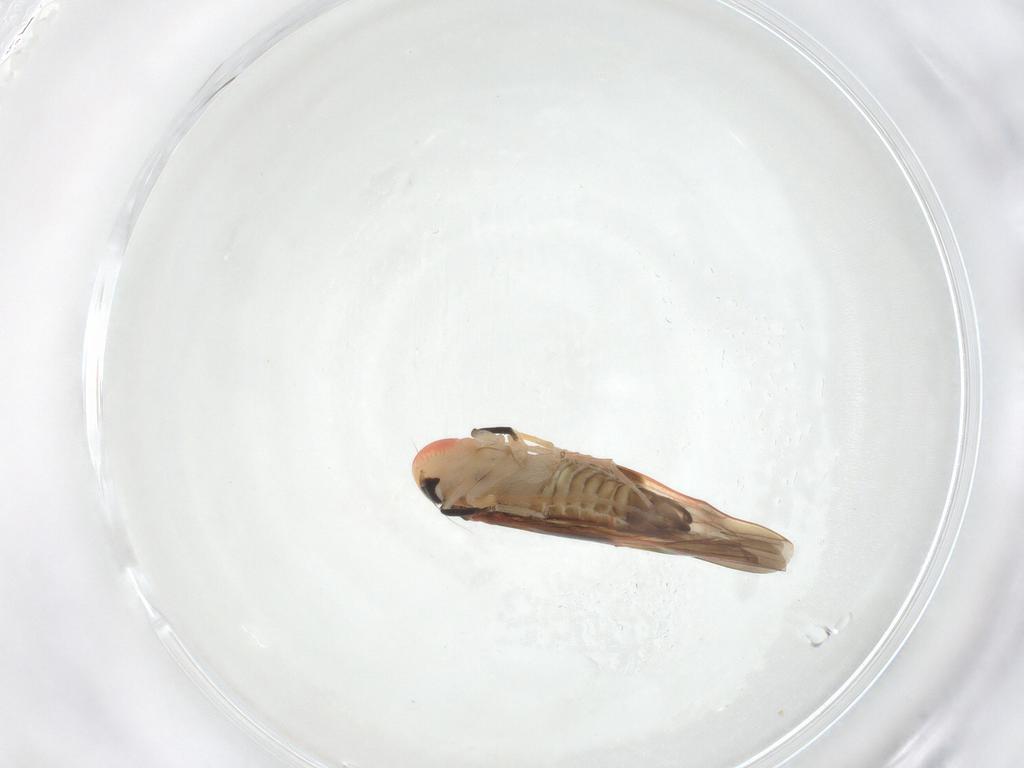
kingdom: Animalia
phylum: Arthropoda
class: Insecta
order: Hemiptera
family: Cicadellidae
